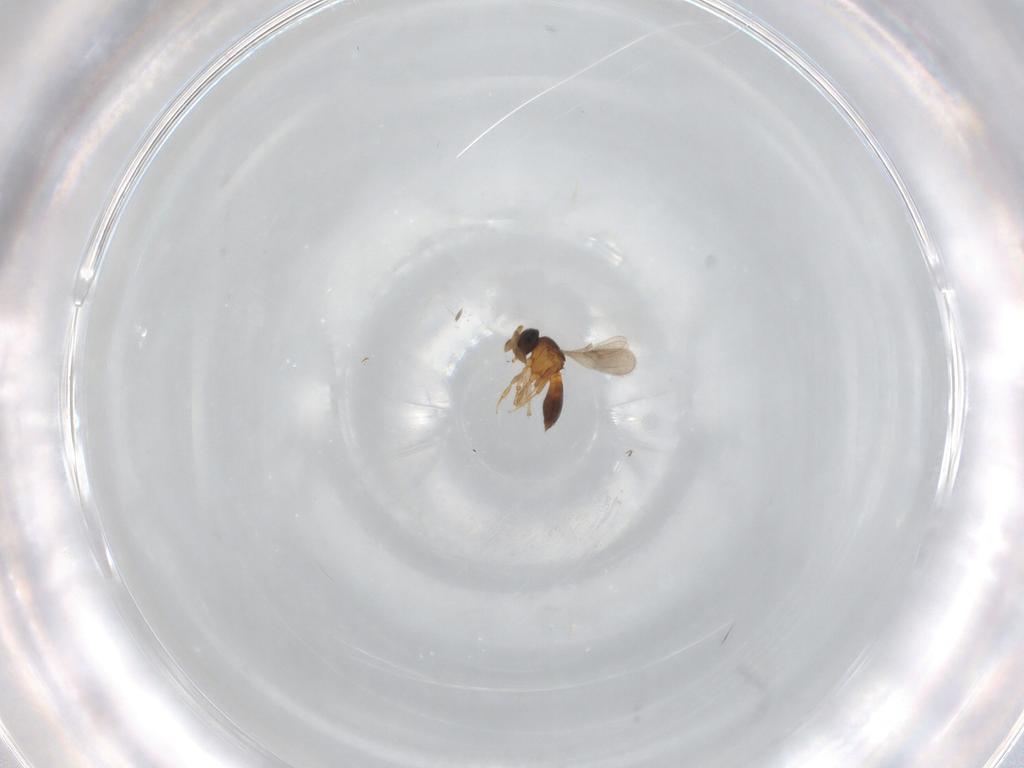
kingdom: Animalia
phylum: Arthropoda
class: Insecta
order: Hymenoptera
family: Scelionidae
